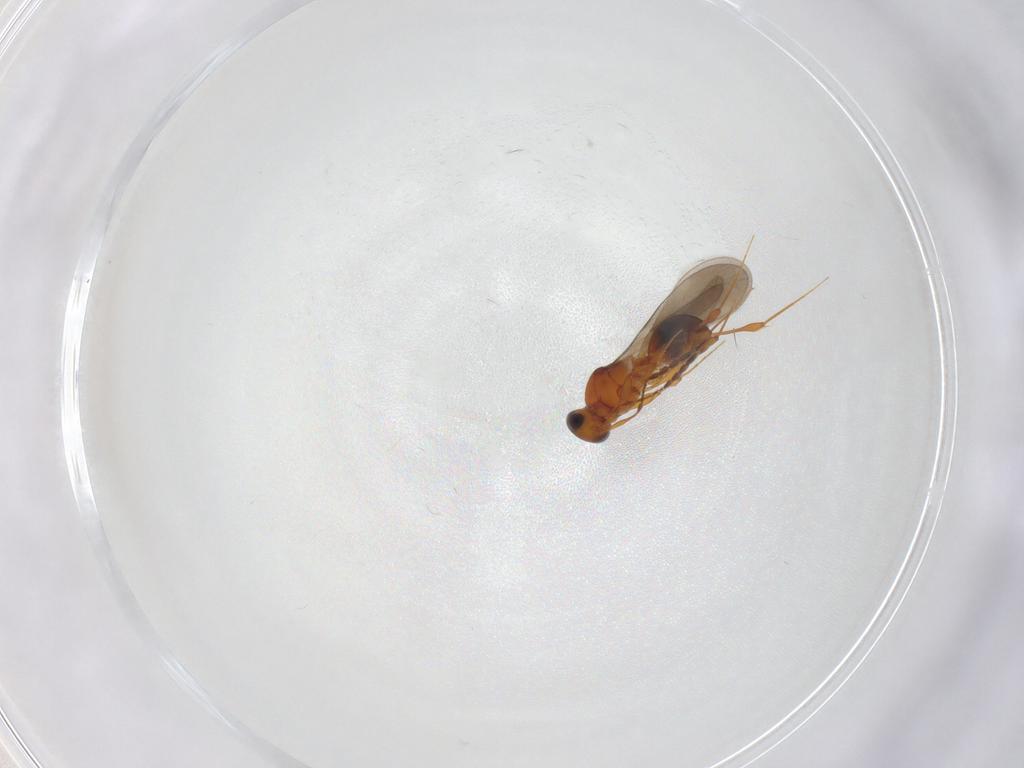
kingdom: Animalia
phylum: Arthropoda
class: Insecta
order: Hymenoptera
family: Platygastridae
